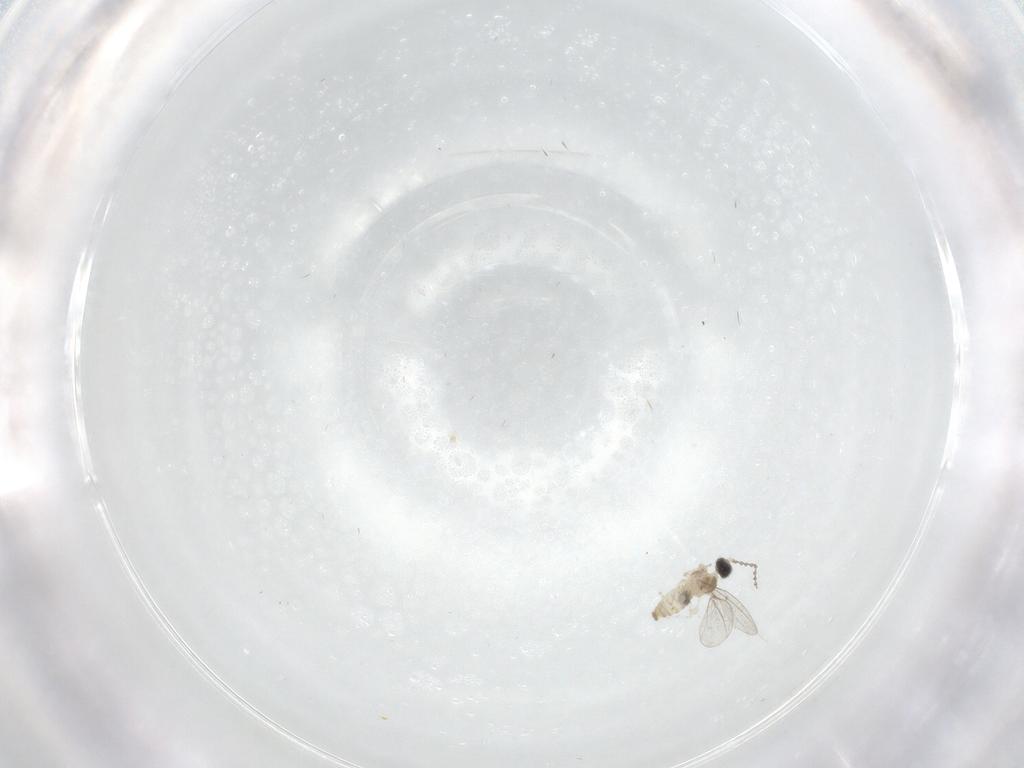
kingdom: Animalia
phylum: Arthropoda
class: Insecta
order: Diptera
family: Cecidomyiidae
